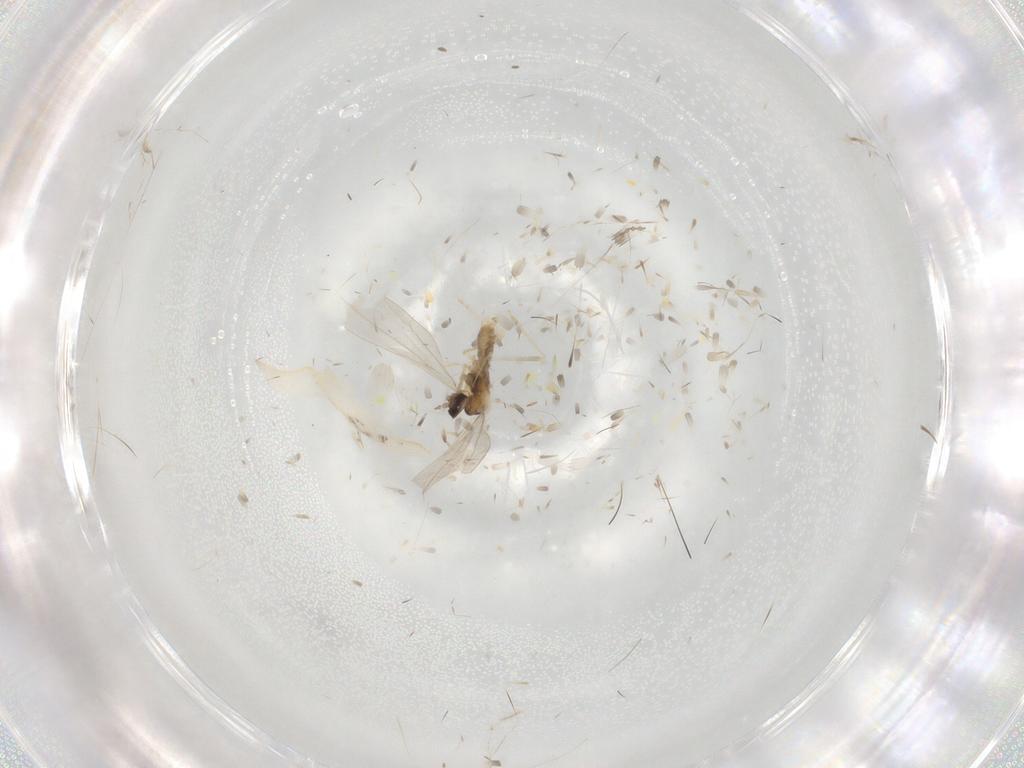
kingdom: Animalia
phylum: Arthropoda
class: Insecta
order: Diptera
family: Cecidomyiidae
